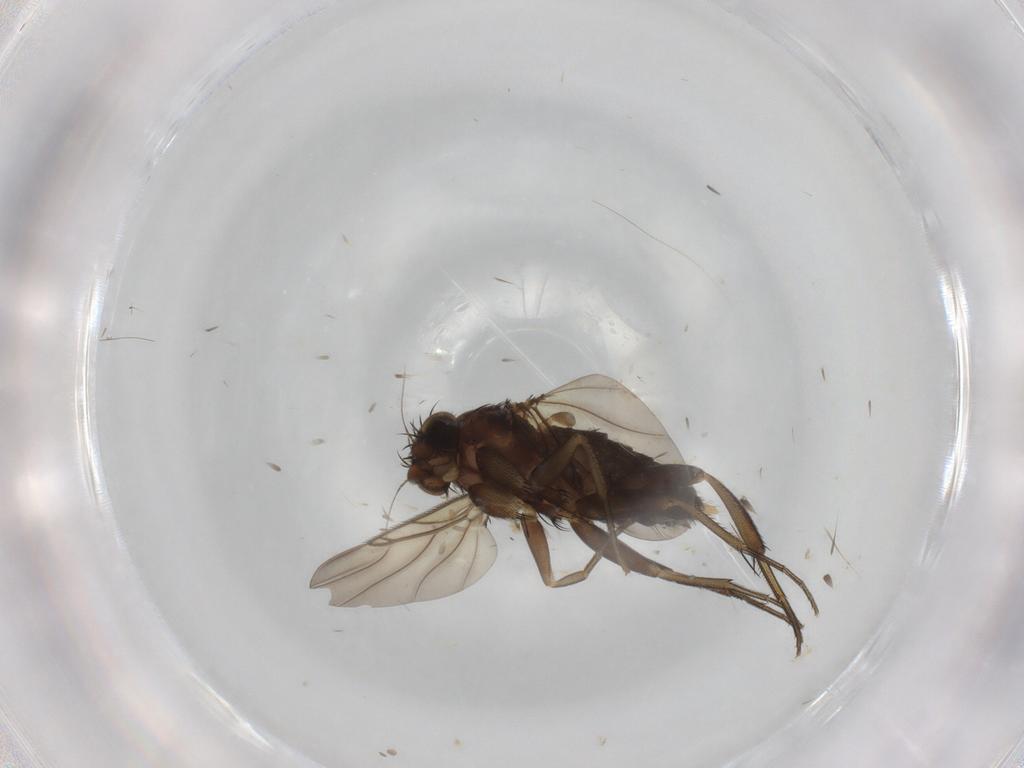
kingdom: Animalia
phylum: Arthropoda
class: Insecta
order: Diptera
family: Phoridae
